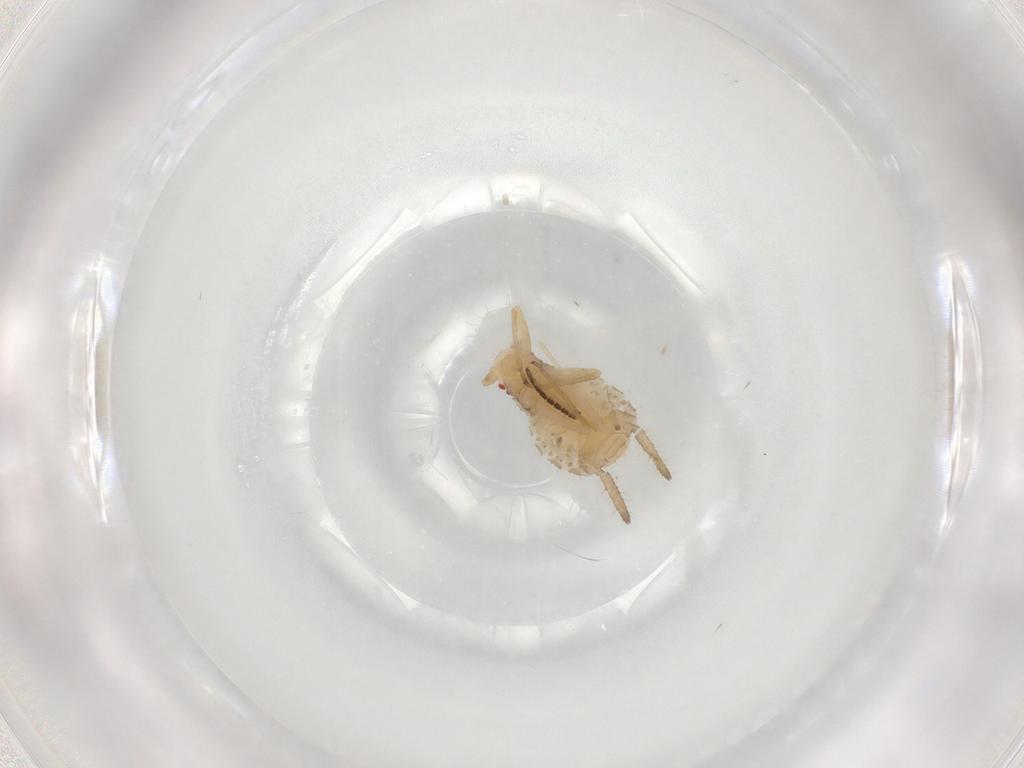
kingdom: Animalia
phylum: Arthropoda
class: Insecta
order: Hemiptera
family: Aphididae
